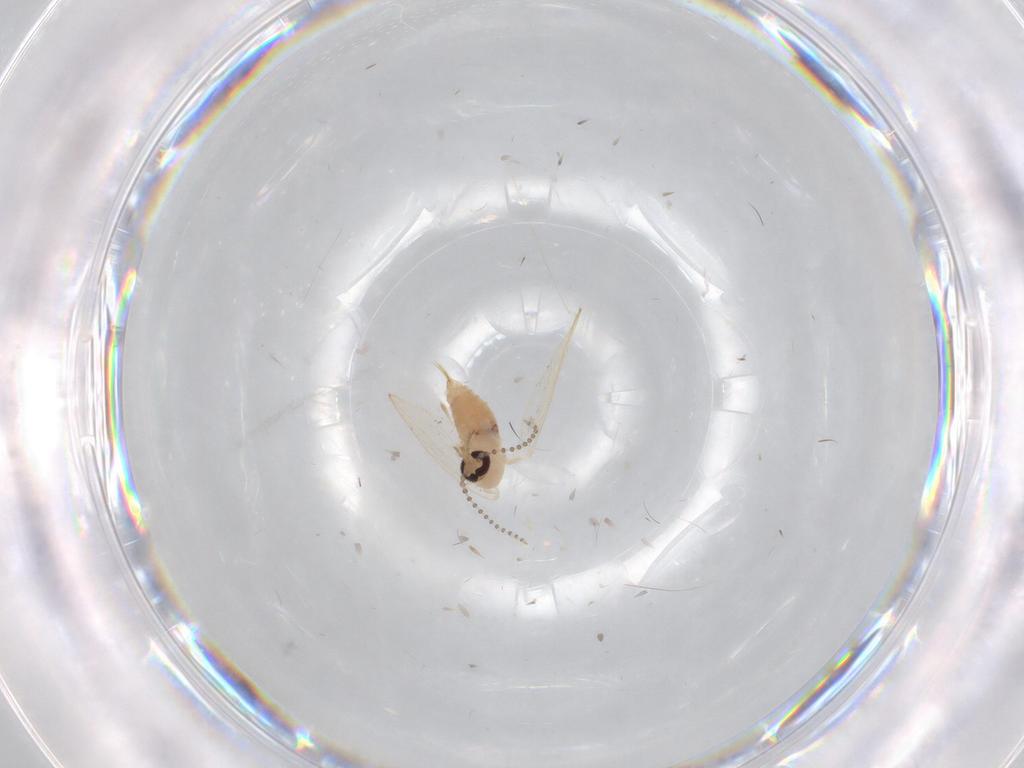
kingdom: Animalia
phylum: Arthropoda
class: Insecta
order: Diptera
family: Psychodidae
